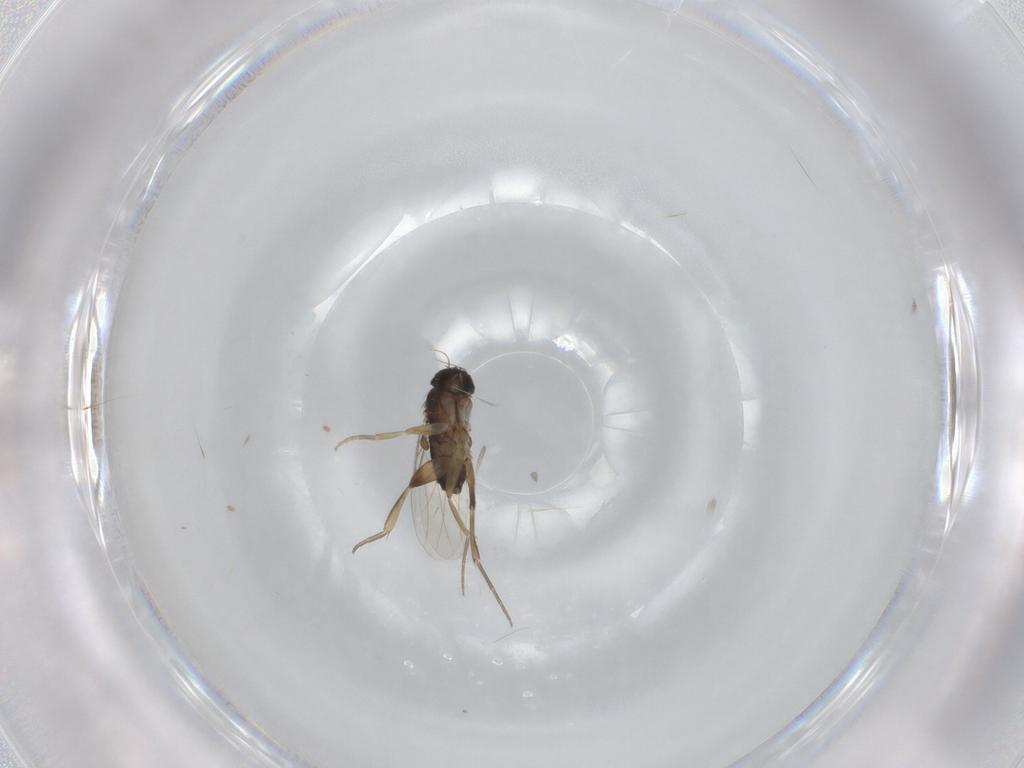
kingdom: Animalia
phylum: Arthropoda
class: Insecta
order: Diptera
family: Phoridae
